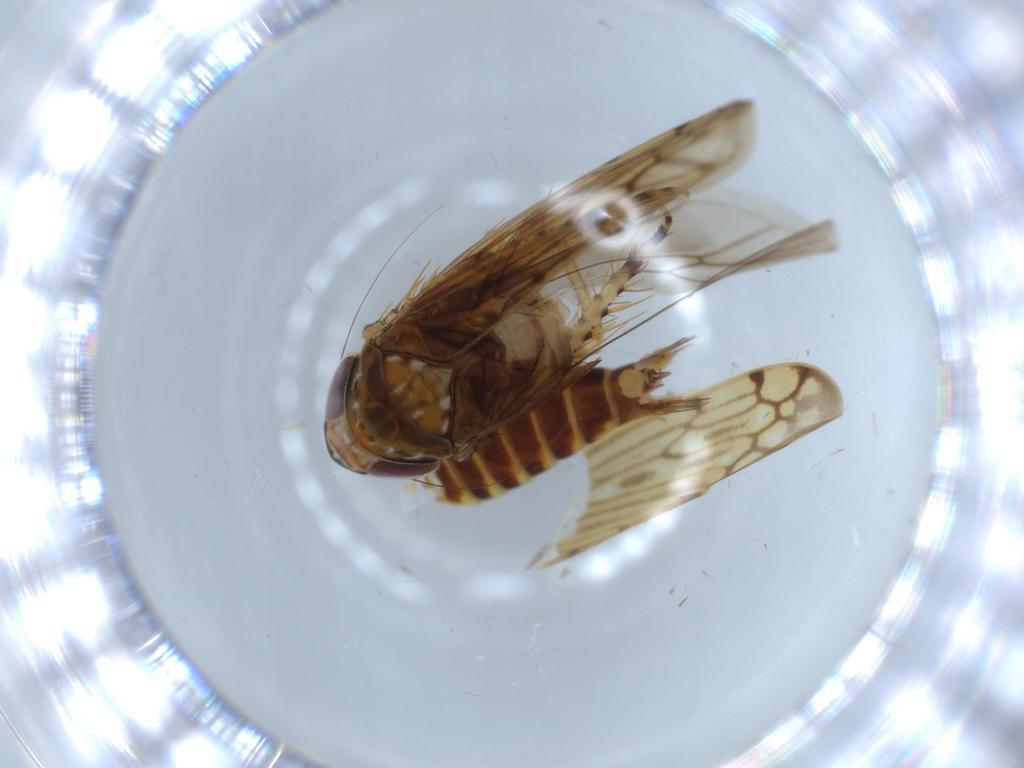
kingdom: Animalia
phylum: Arthropoda
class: Insecta
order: Hemiptera
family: Cicadellidae
